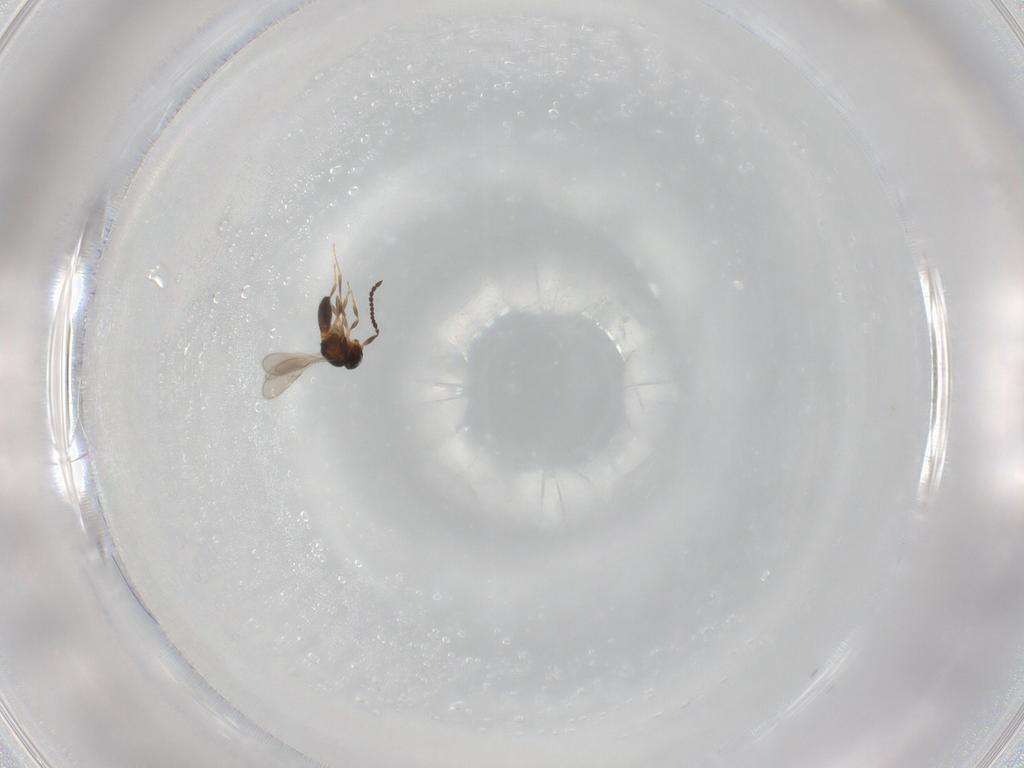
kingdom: Animalia
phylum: Arthropoda
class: Insecta
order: Hymenoptera
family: Scelionidae
